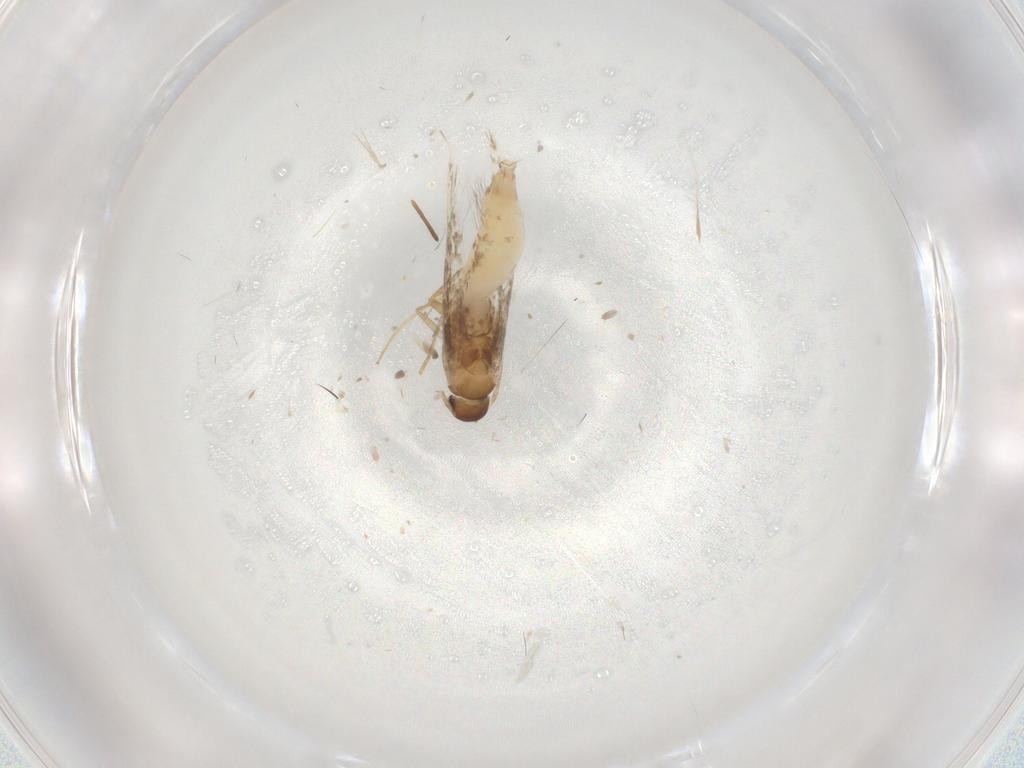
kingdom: Animalia
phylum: Arthropoda
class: Insecta
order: Lepidoptera
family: Gracillariidae
